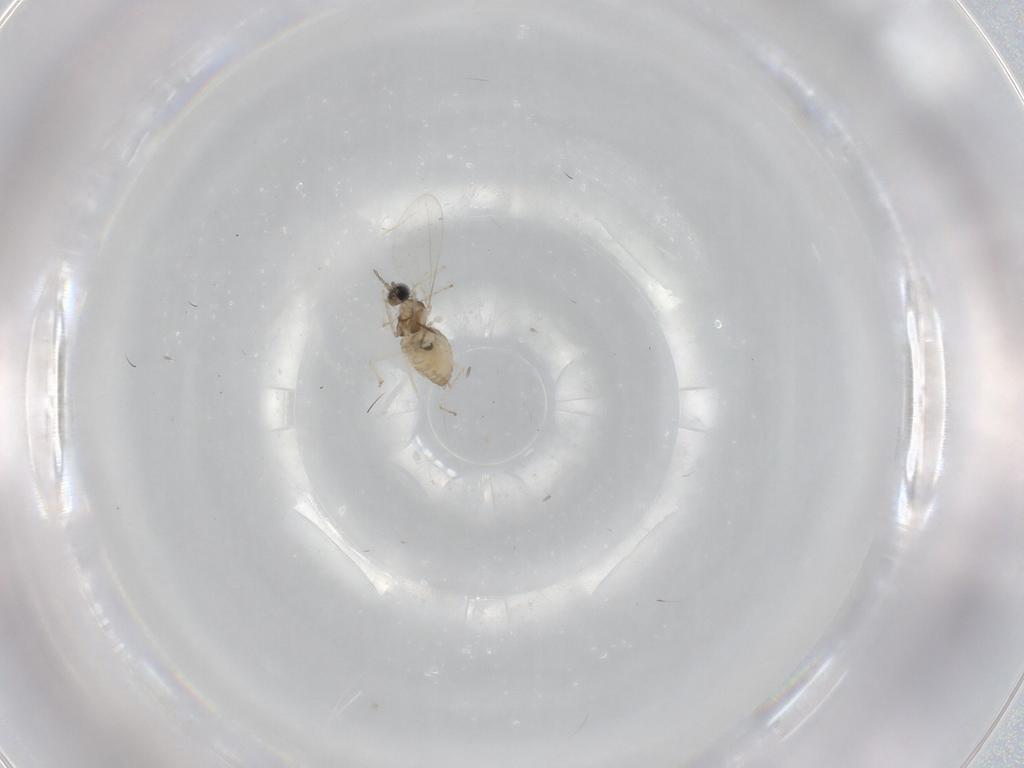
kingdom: Animalia
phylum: Arthropoda
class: Insecta
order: Diptera
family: Cecidomyiidae
